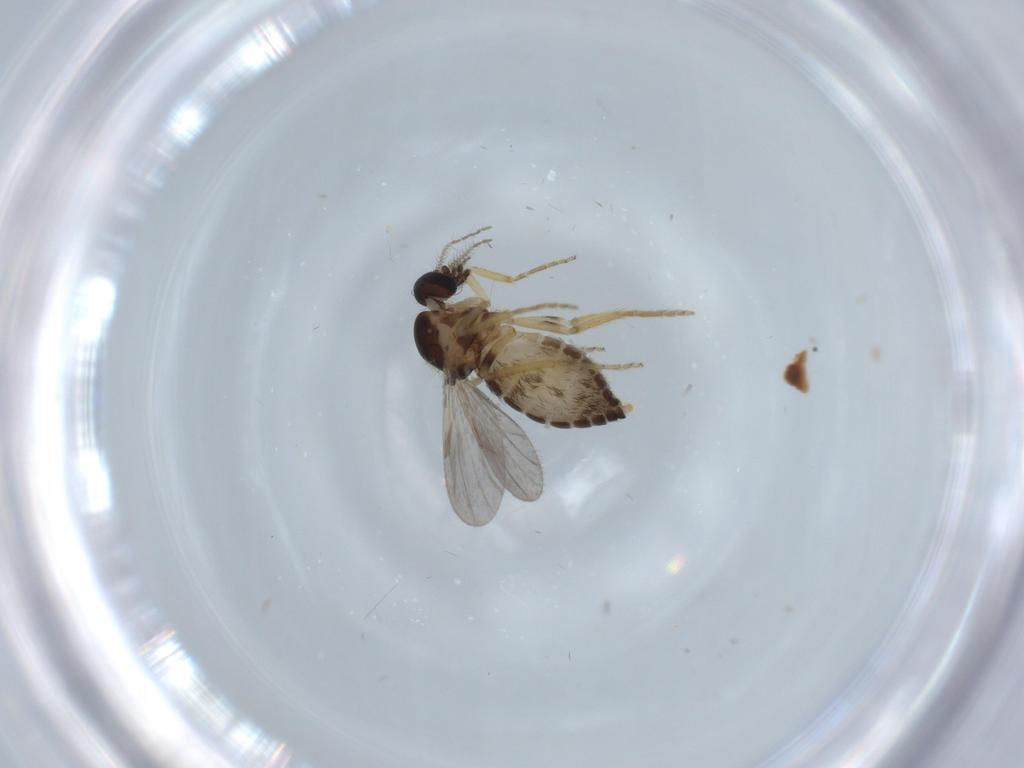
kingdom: Animalia
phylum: Arthropoda
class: Insecta
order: Diptera
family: Ceratopogonidae
